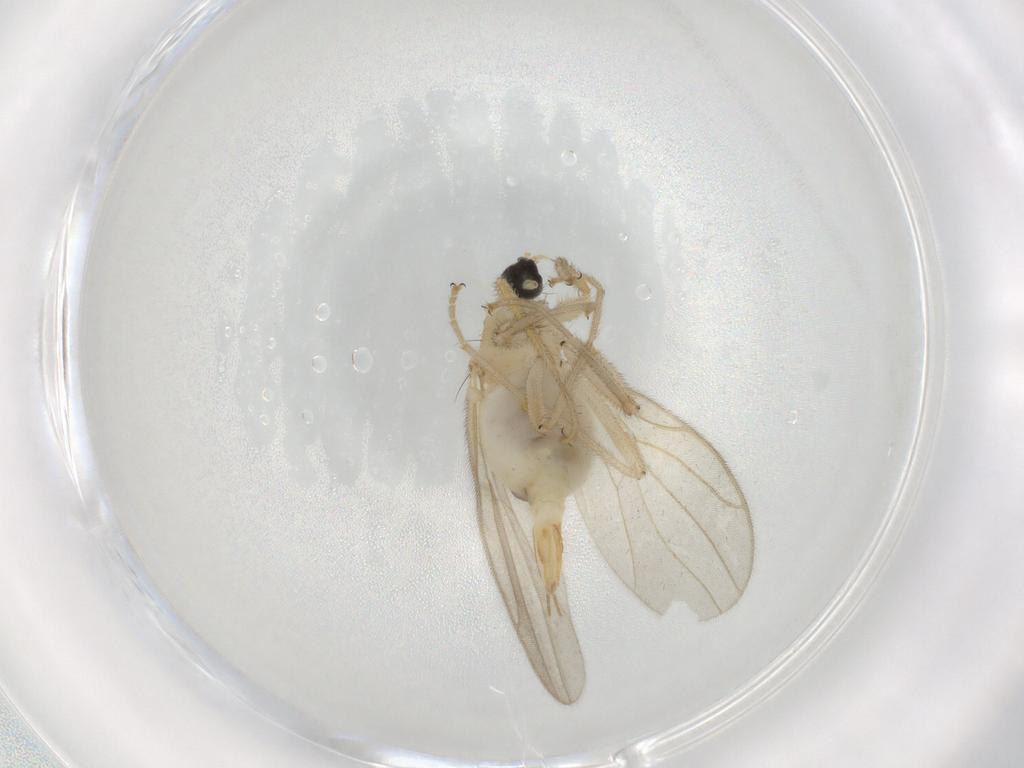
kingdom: Animalia
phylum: Arthropoda
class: Insecta
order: Diptera
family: Hybotidae
